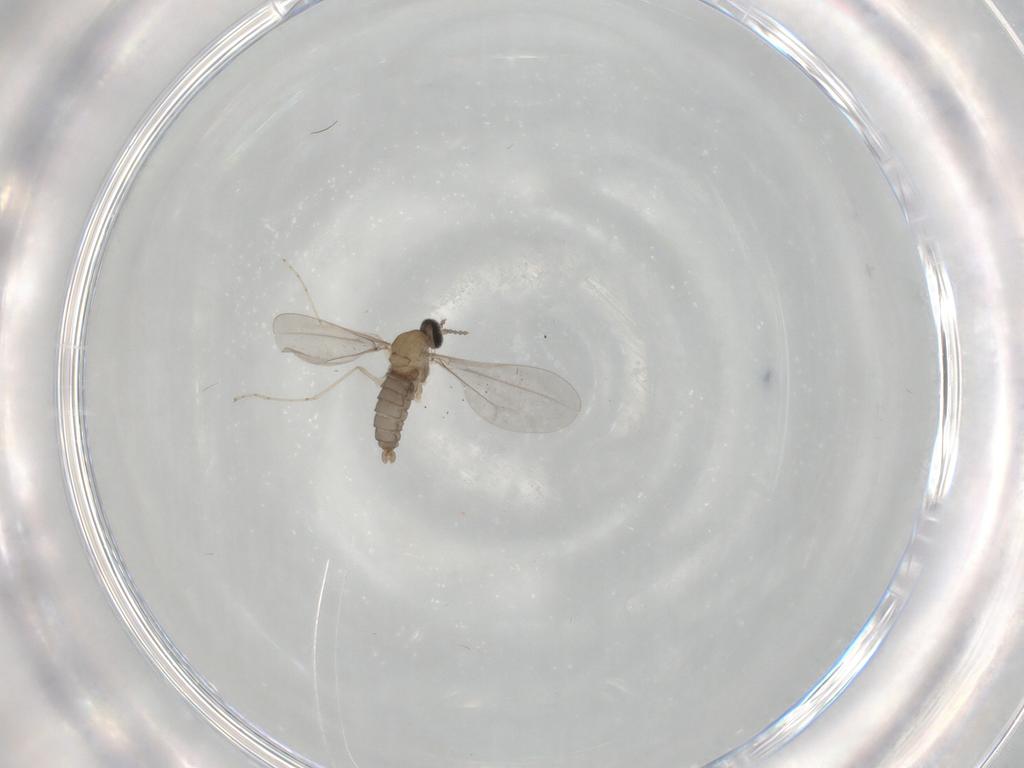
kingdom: Animalia
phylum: Arthropoda
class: Insecta
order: Diptera
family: Cecidomyiidae
